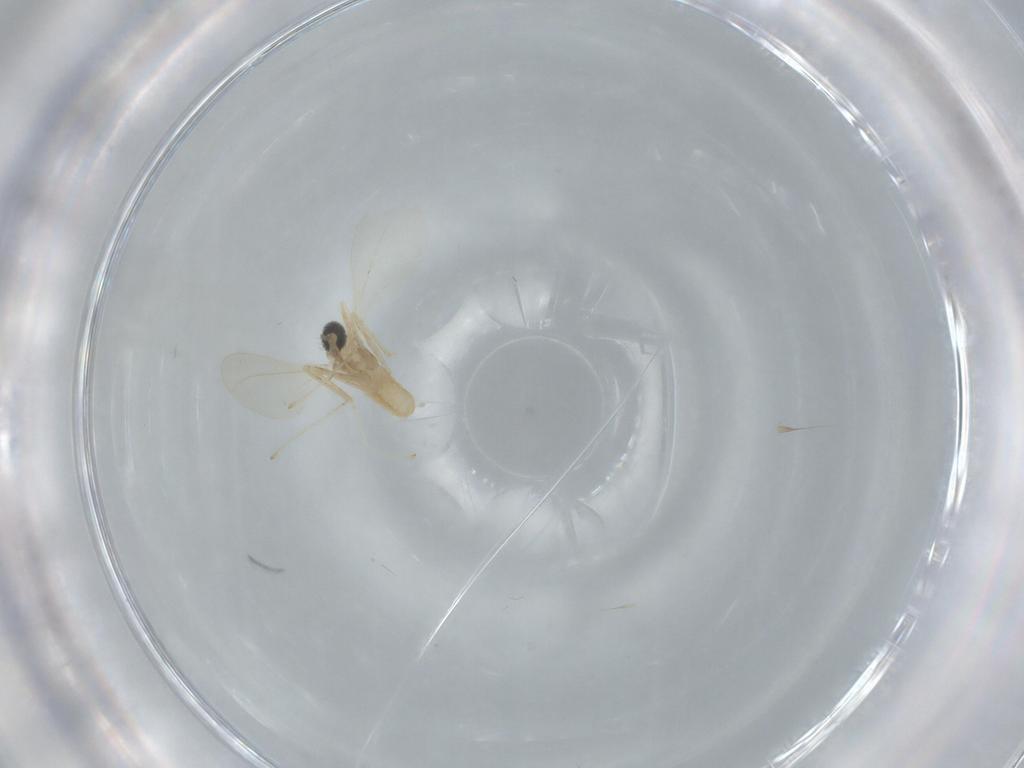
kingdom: Animalia
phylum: Arthropoda
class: Insecta
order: Diptera
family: Cecidomyiidae
